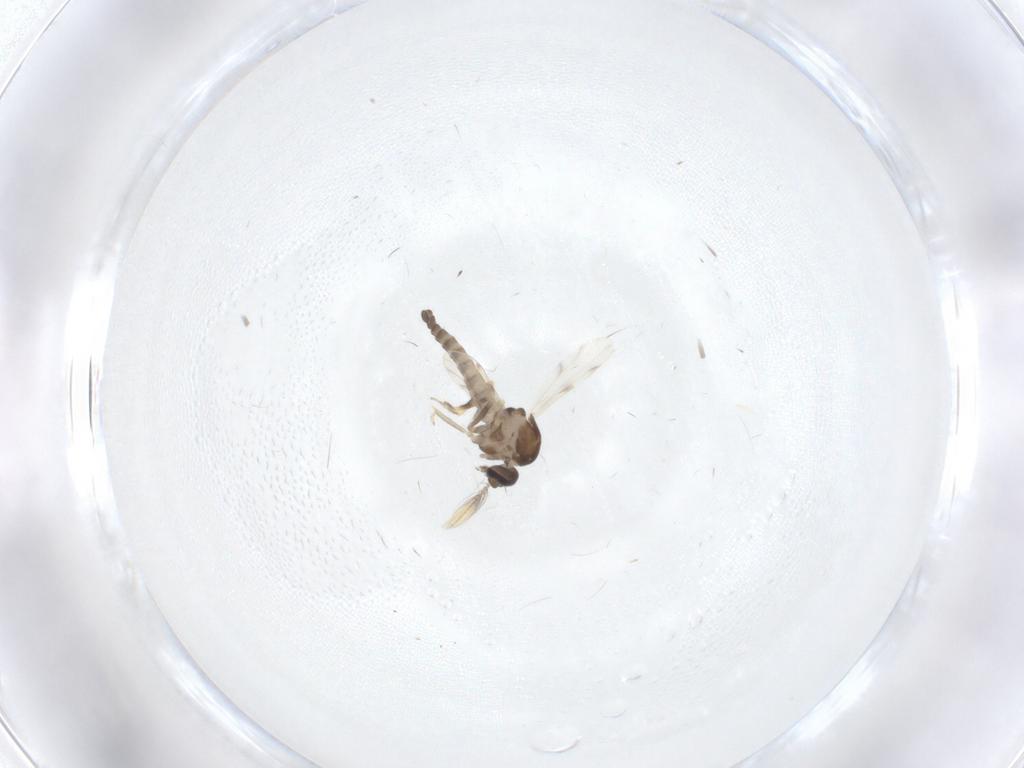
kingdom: Animalia
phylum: Arthropoda
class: Insecta
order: Diptera
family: Ceratopogonidae
